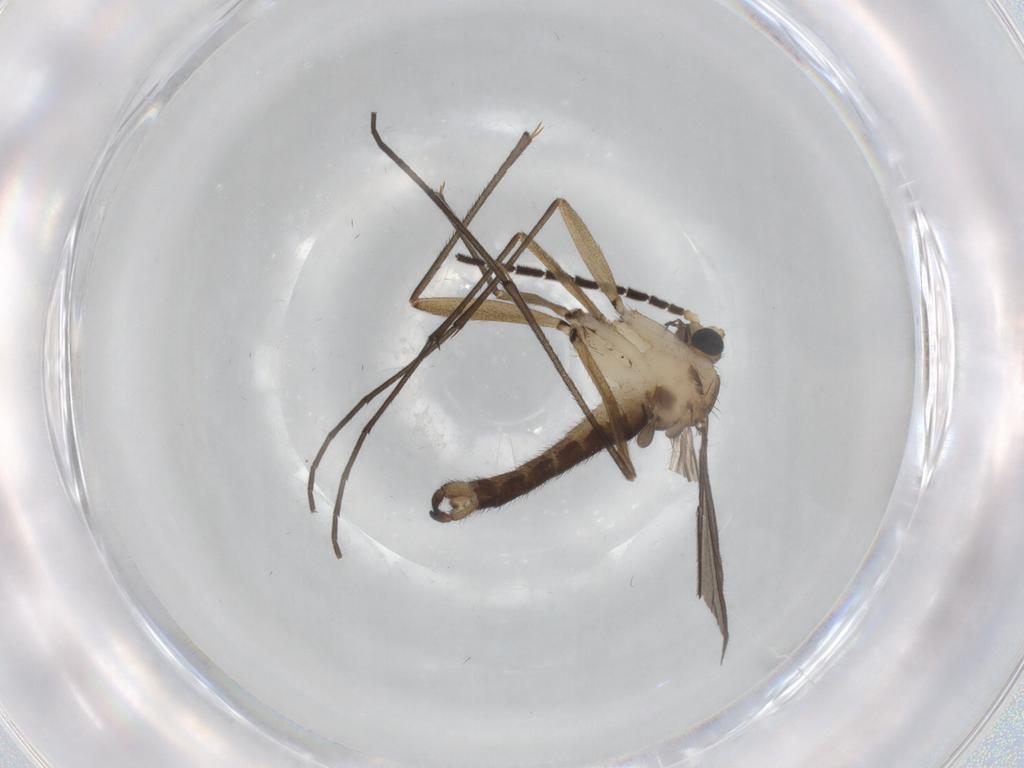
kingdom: Animalia
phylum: Arthropoda
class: Insecta
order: Diptera
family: Sciaridae
